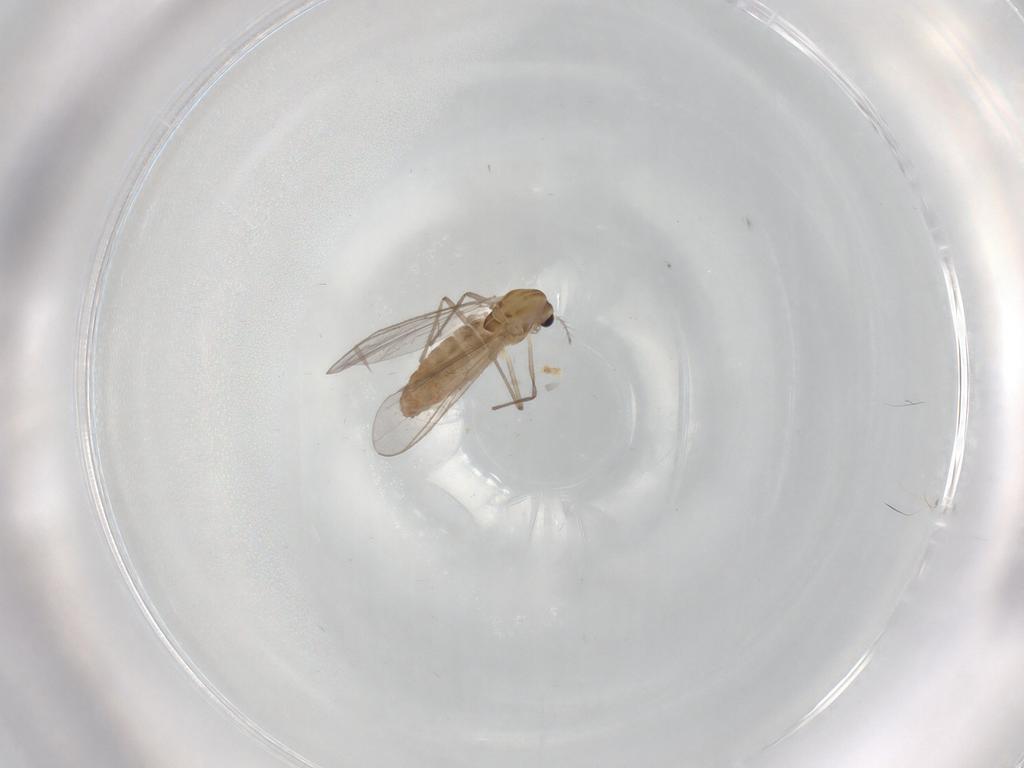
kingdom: Animalia
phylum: Arthropoda
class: Insecta
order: Diptera
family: Chironomidae
